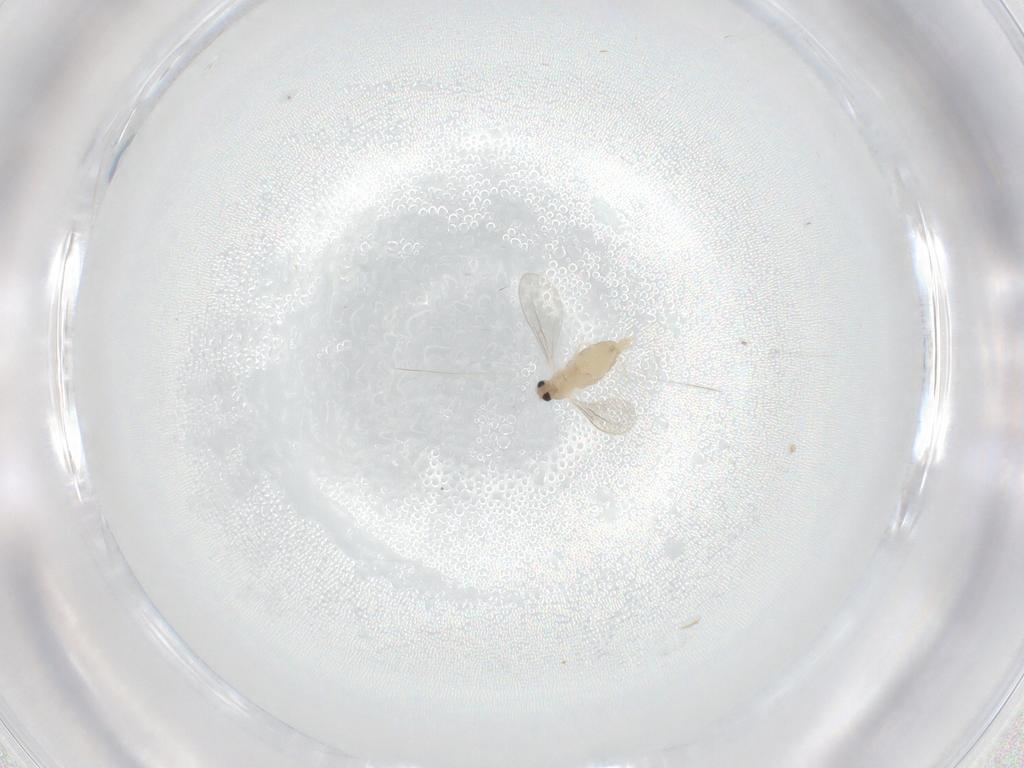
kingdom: Animalia
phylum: Arthropoda
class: Insecta
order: Diptera
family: Cecidomyiidae
